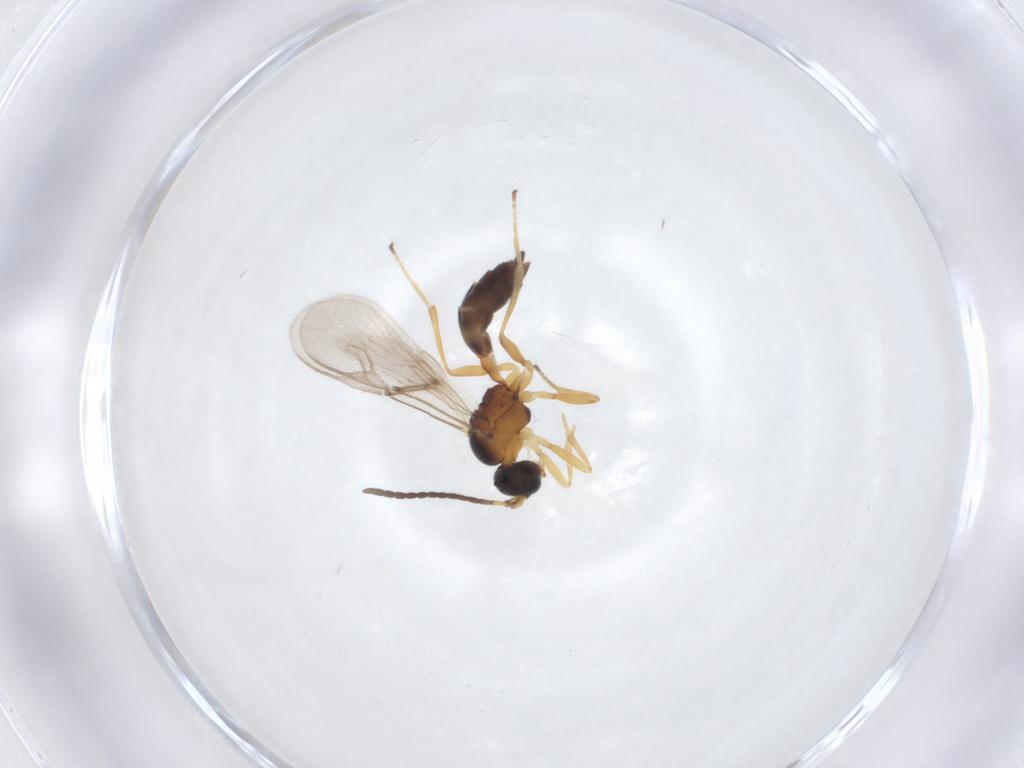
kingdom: Animalia
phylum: Arthropoda
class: Insecta
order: Hymenoptera
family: Braconidae
